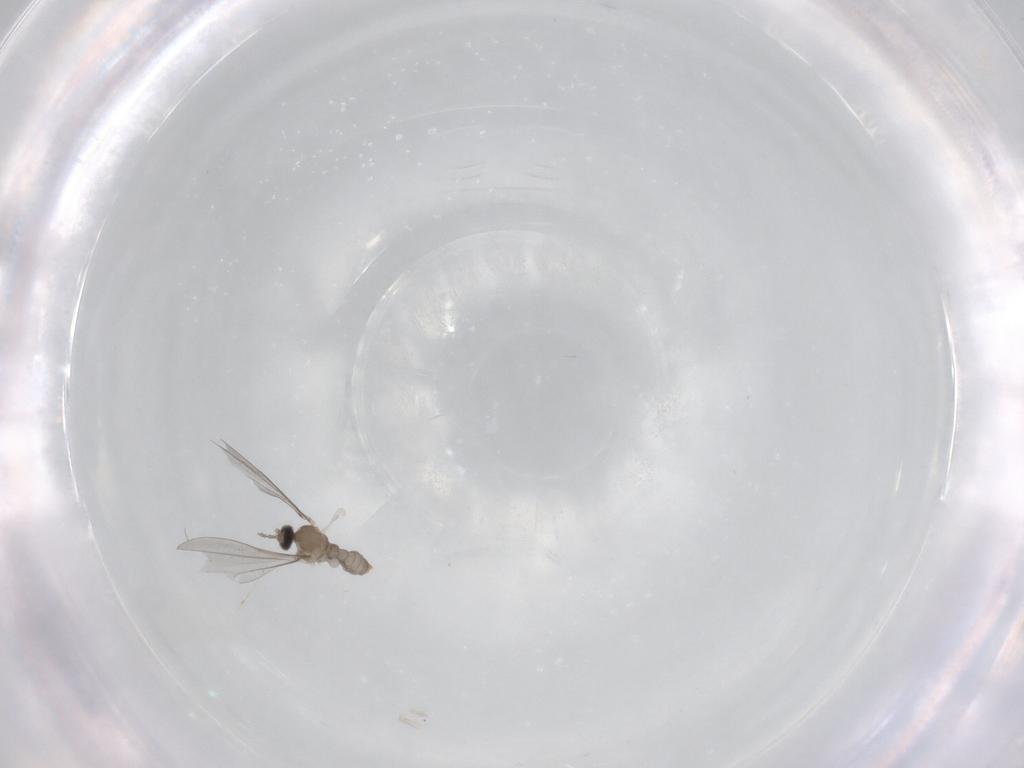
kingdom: Animalia
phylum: Arthropoda
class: Insecta
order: Diptera
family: Cecidomyiidae
